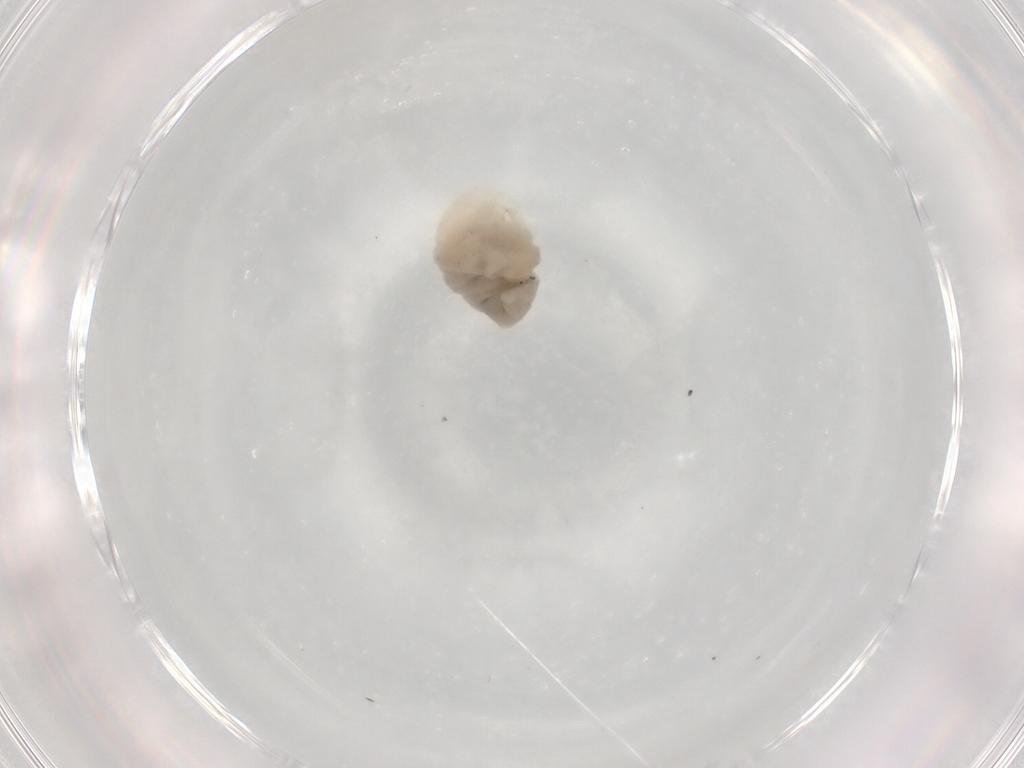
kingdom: Animalia
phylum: Arthropoda
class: Insecta
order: Hymenoptera
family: Pteromalidae
